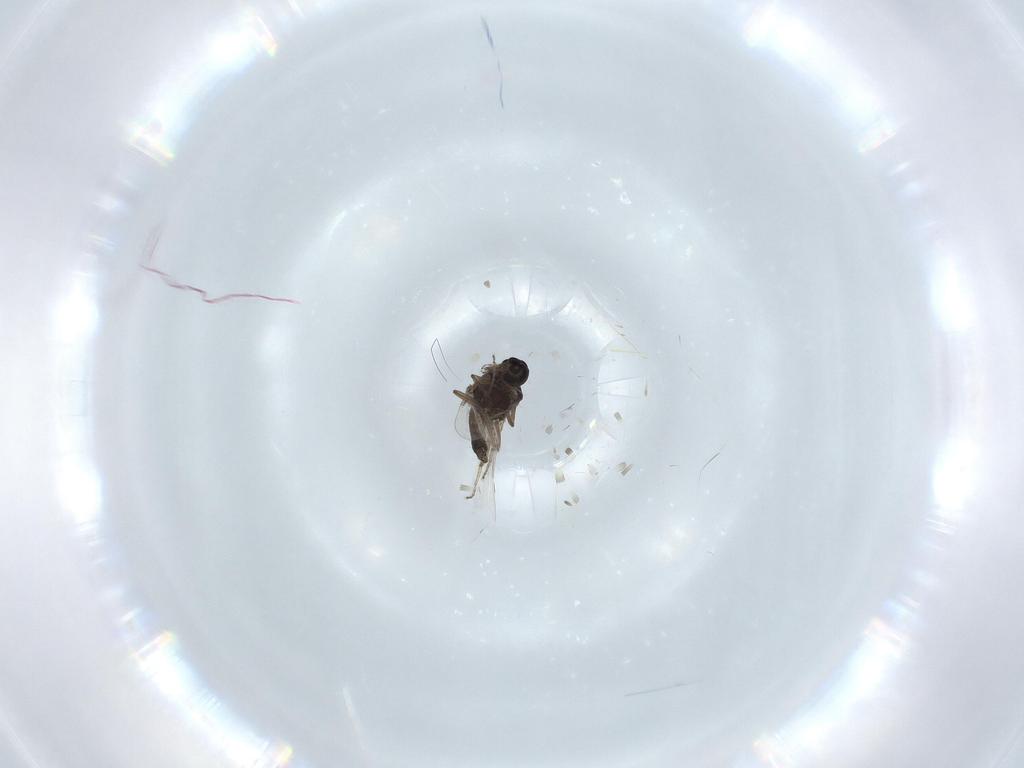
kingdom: Animalia
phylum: Arthropoda
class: Insecta
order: Diptera
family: Ceratopogonidae
